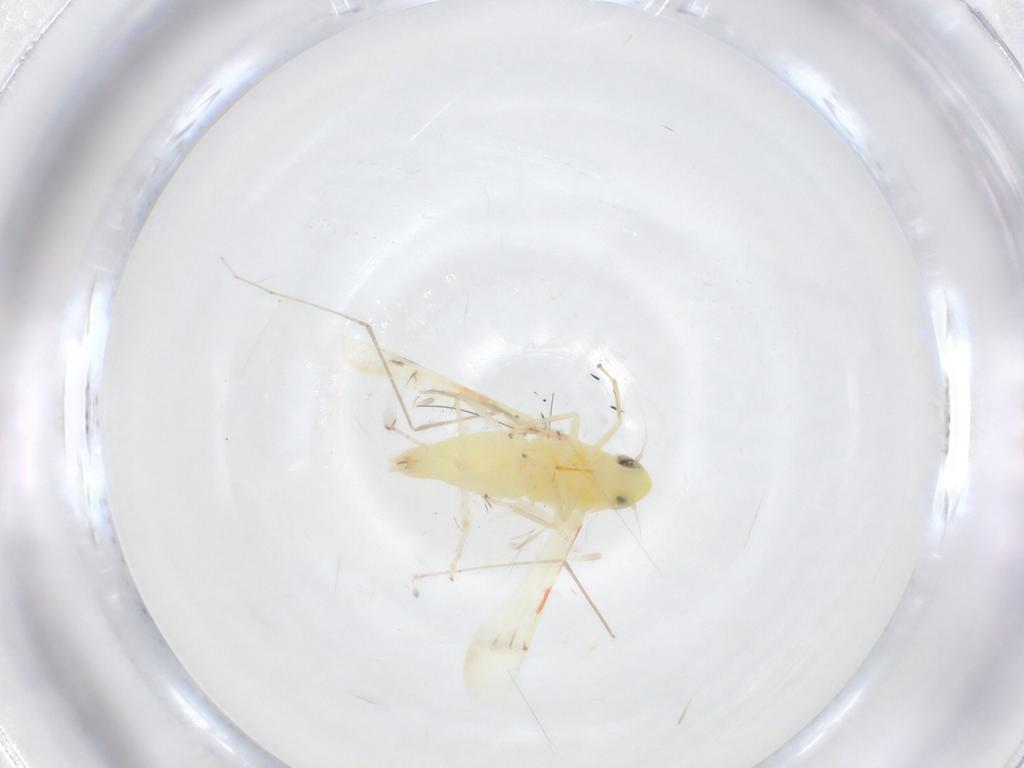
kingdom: Animalia
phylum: Arthropoda
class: Insecta
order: Hemiptera
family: Cicadellidae
